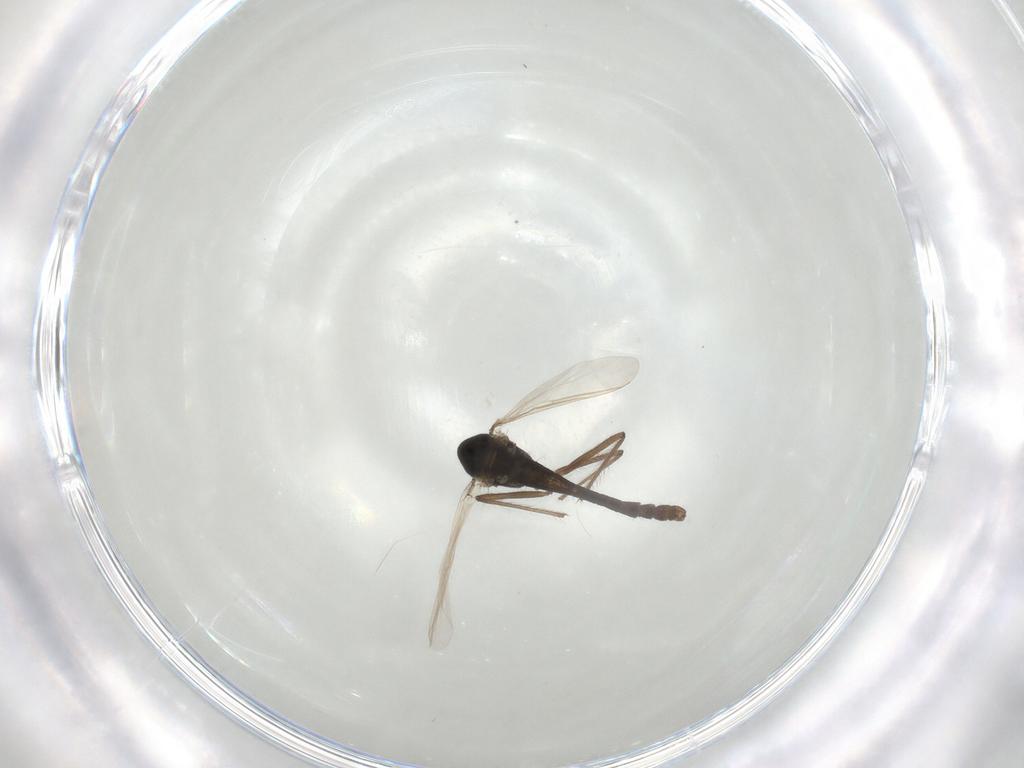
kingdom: Animalia
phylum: Arthropoda
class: Insecta
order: Diptera
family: Chironomidae
